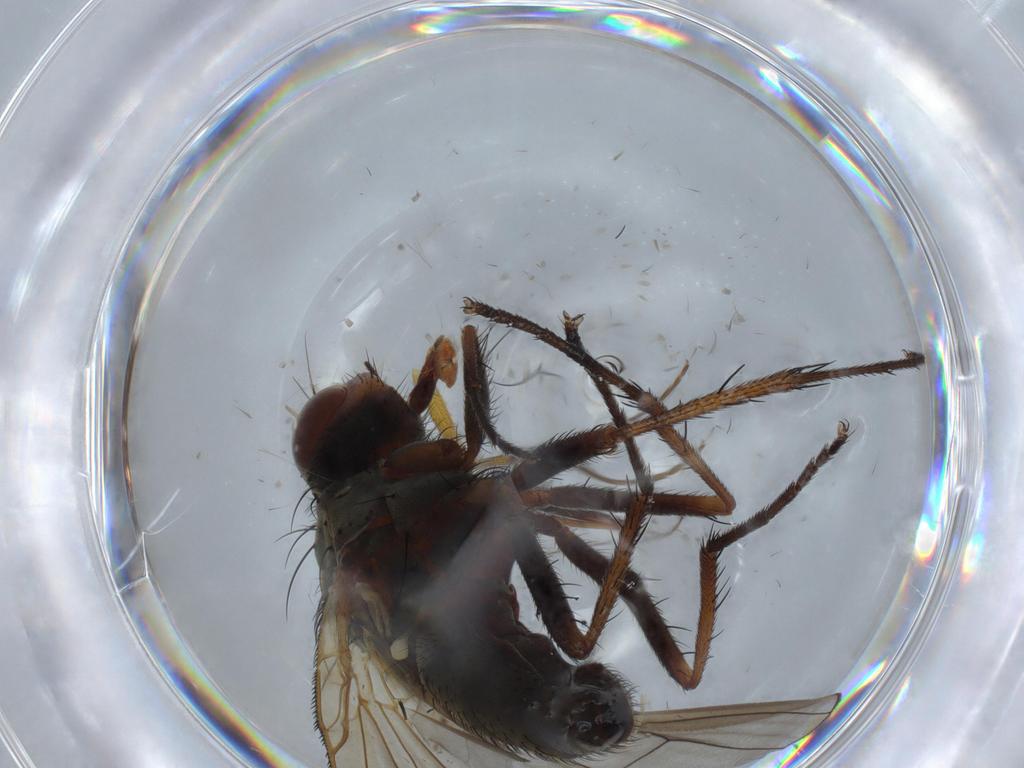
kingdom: Animalia
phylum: Arthropoda
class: Insecta
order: Diptera
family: Anthomyiidae
